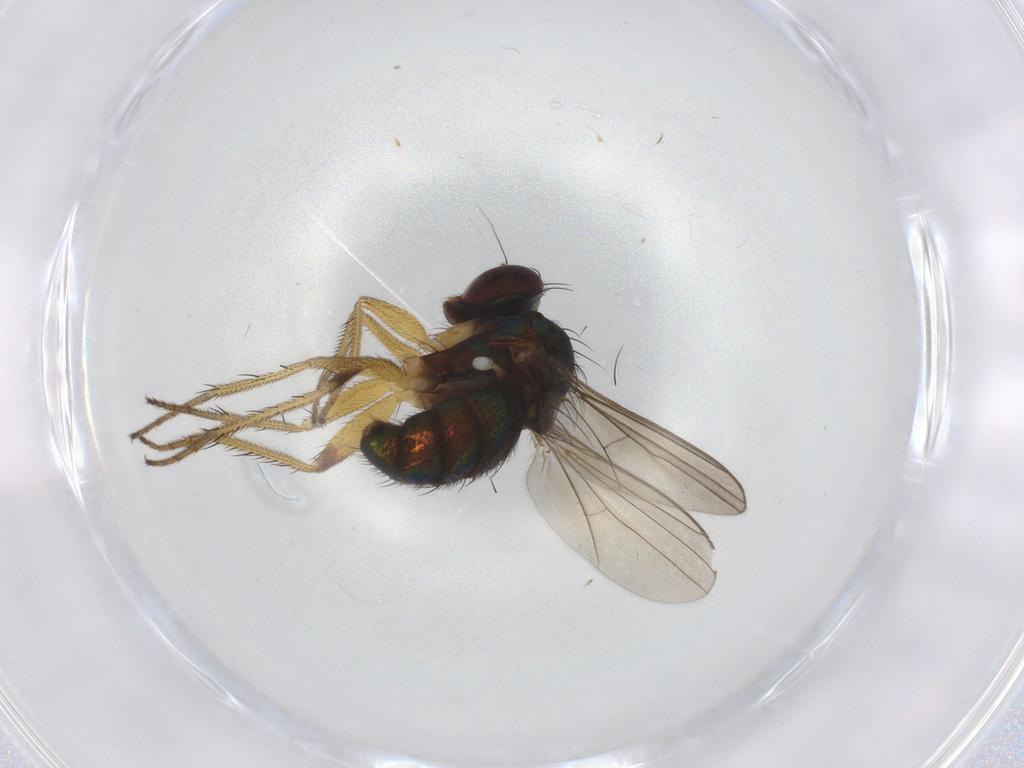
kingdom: Animalia
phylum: Arthropoda
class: Insecta
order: Diptera
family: Dolichopodidae
